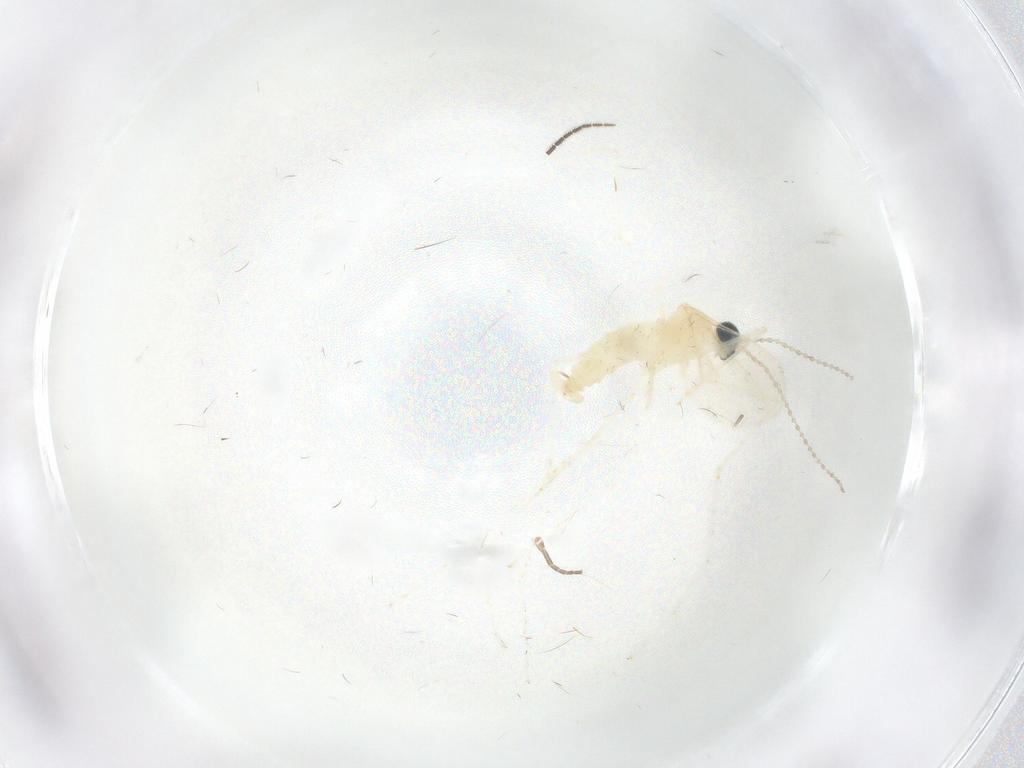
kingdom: Animalia
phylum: Arthropoda
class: Insecta
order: Diptera
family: Cecidomyiidae
